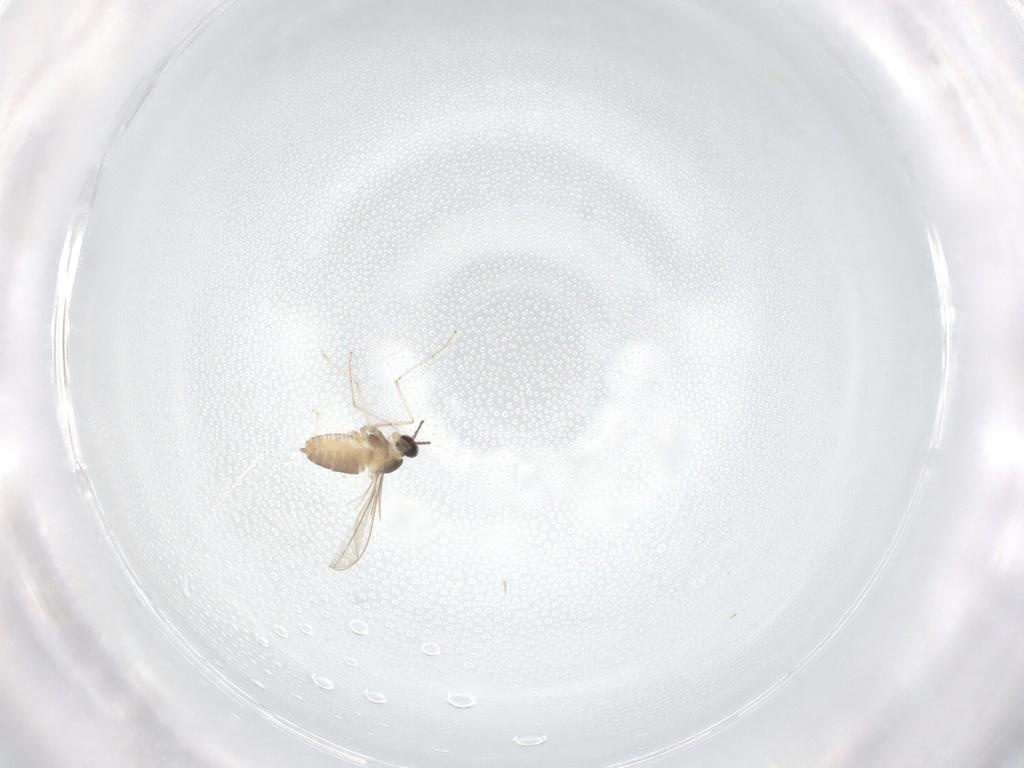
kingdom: Animalia
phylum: Arthropoda
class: Insecta
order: Diptera
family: Cecidomyiidae
